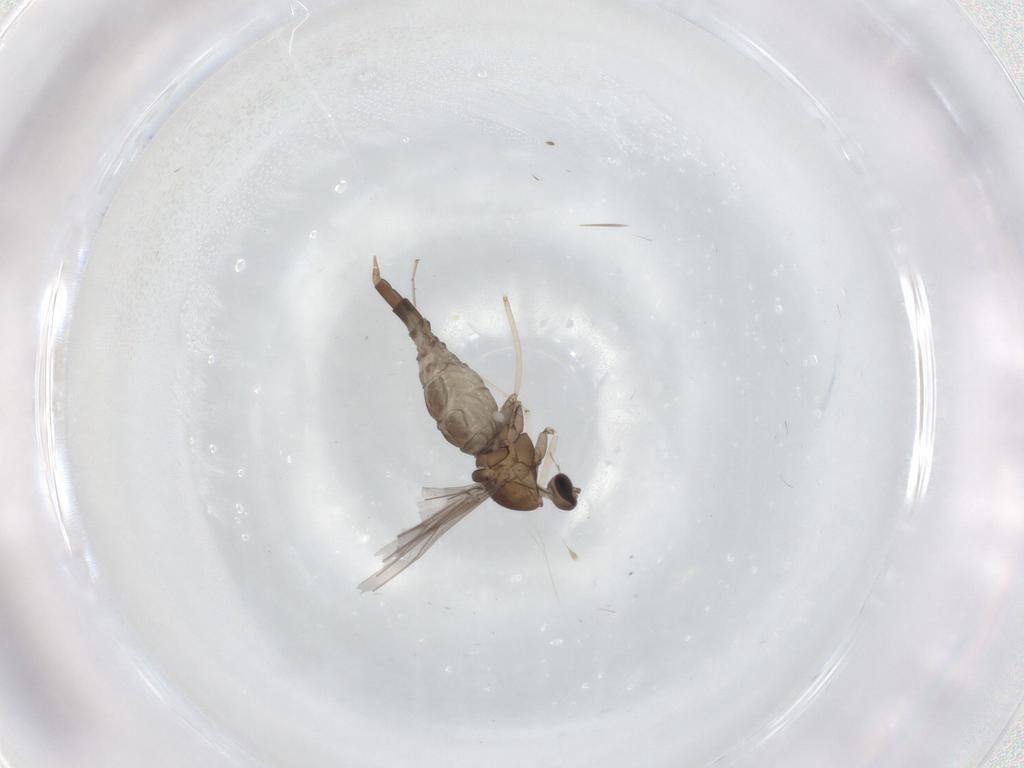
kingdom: Animalia
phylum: Arthropoda
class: Insecta
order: Diptera
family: Cecidomyiidae
